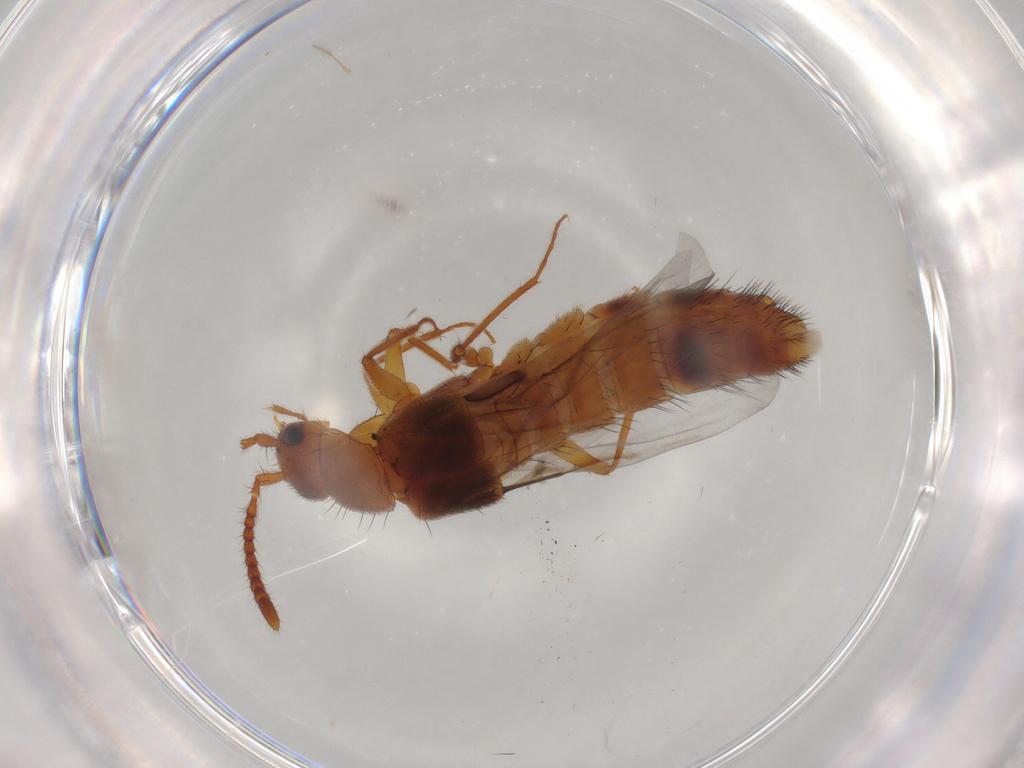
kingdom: Animalia
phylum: Arthropoda
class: Insecta
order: Coleoptera
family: Staphylinidae
